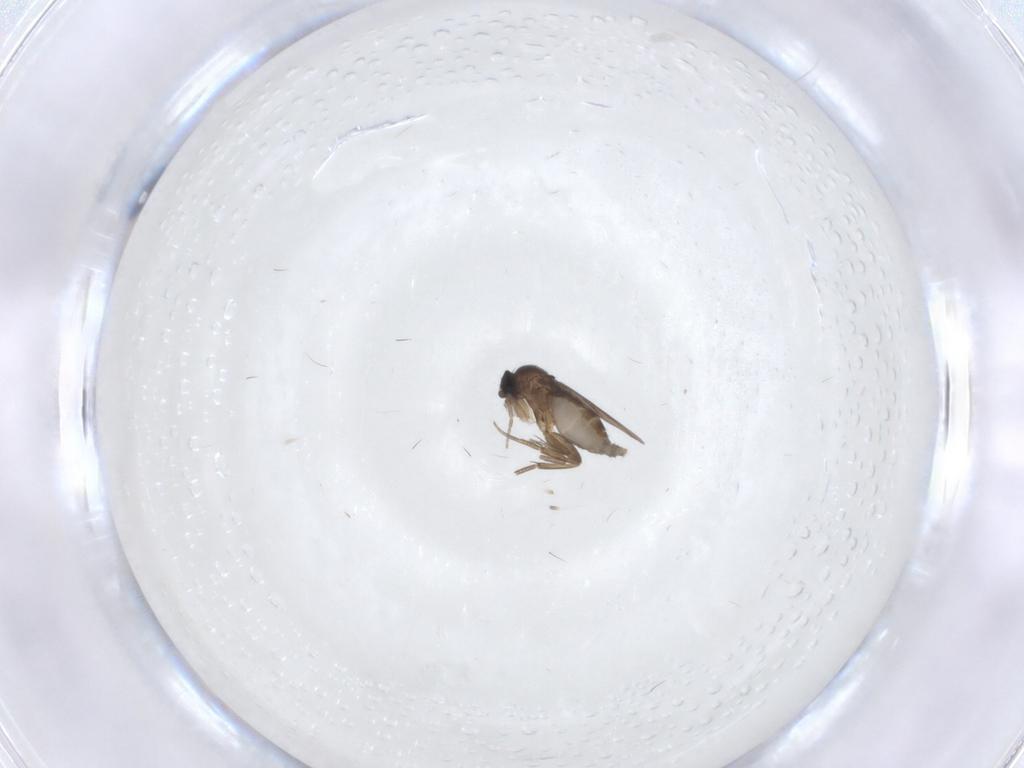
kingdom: Animalia
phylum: Arthropoda
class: Insecta
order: Diptera
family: Phoridae
